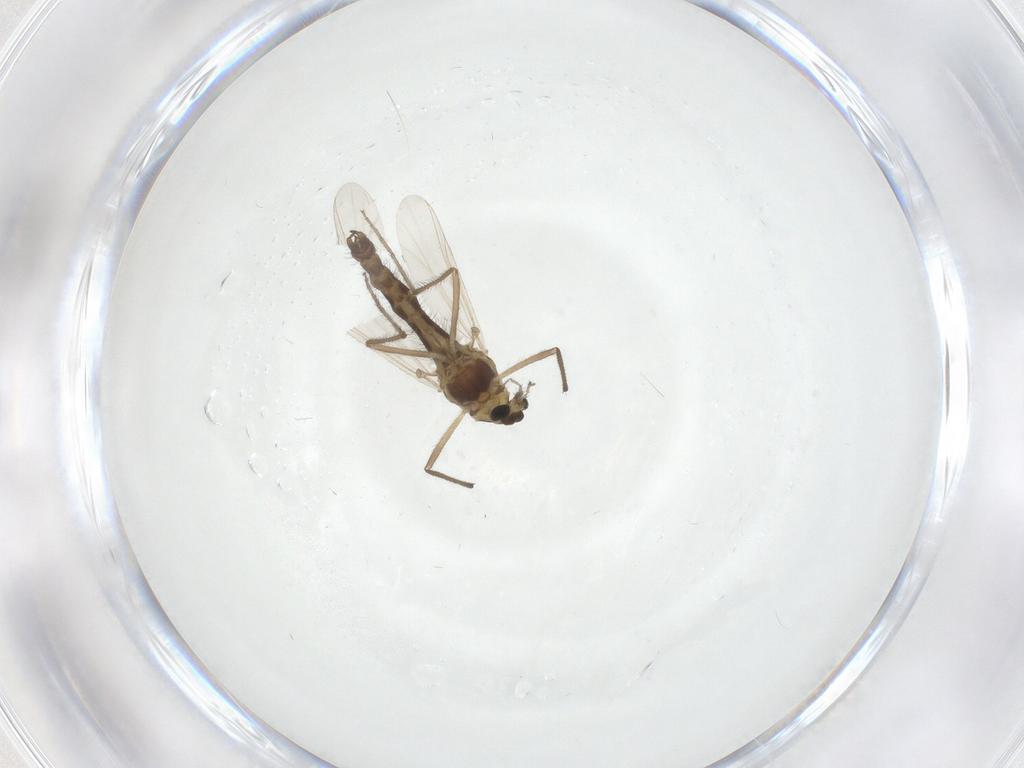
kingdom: Animalia
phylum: Arthropoda
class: Insecta
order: Diptera
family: Chironomidae
